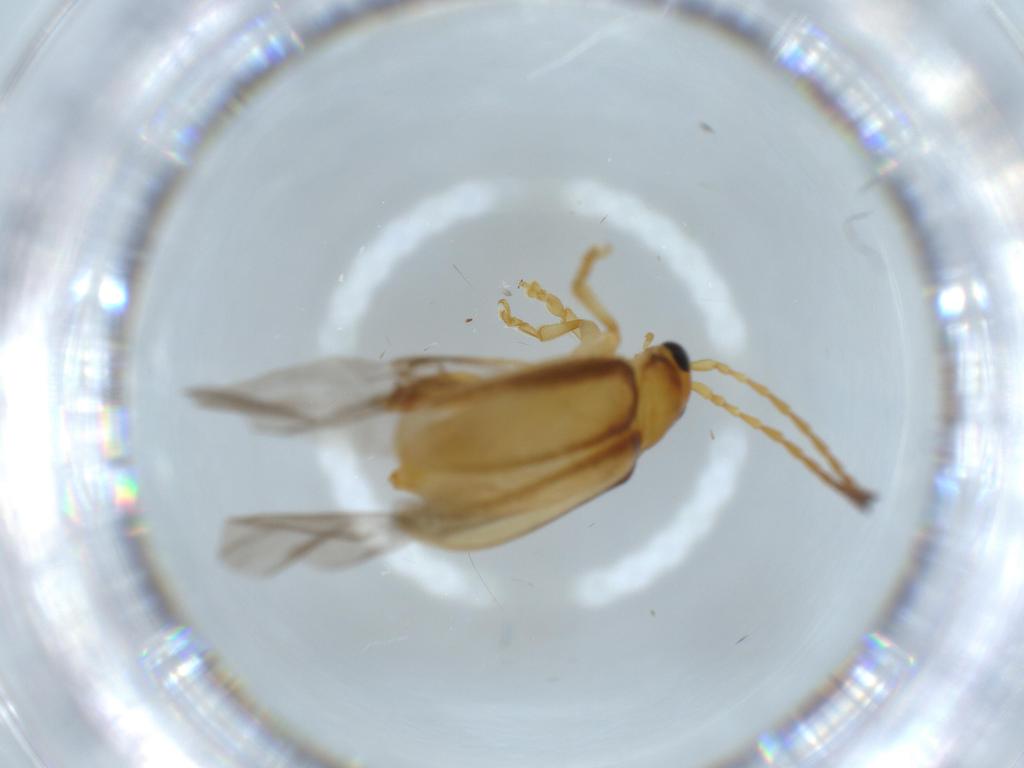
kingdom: Animalia
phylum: Arthropoda
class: Insecta
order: Coleoptera
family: Chrysomelidae
